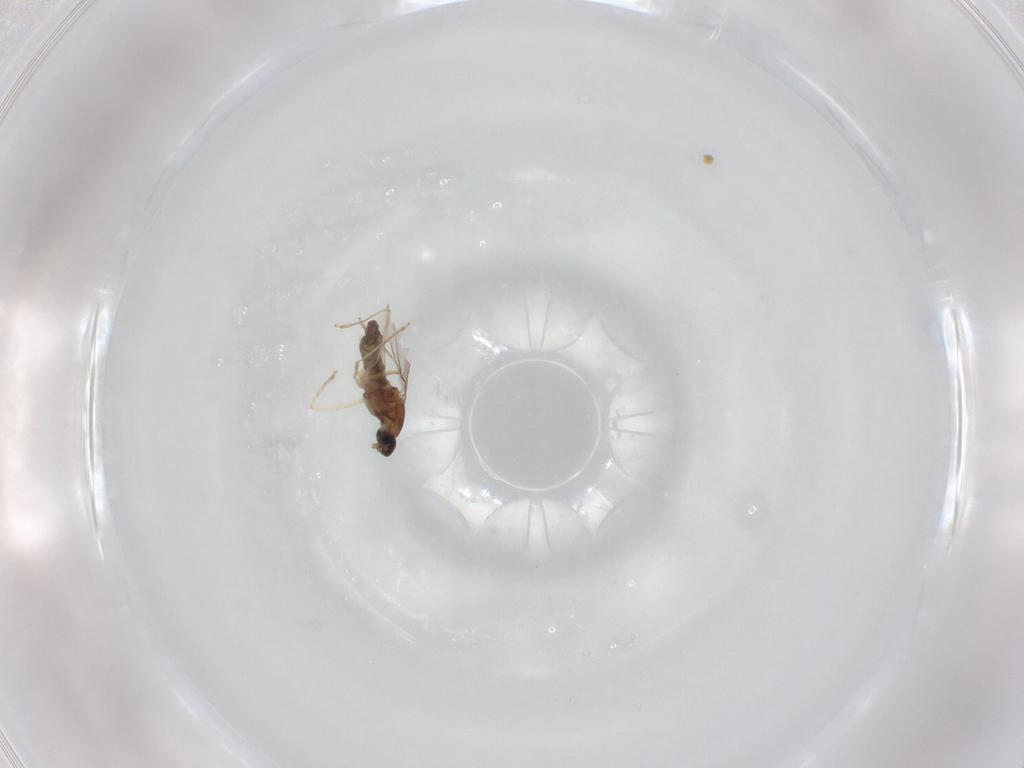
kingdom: Animalia
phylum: Arthropoda
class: Insecta
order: Diptera
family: Cecidomyiidae
